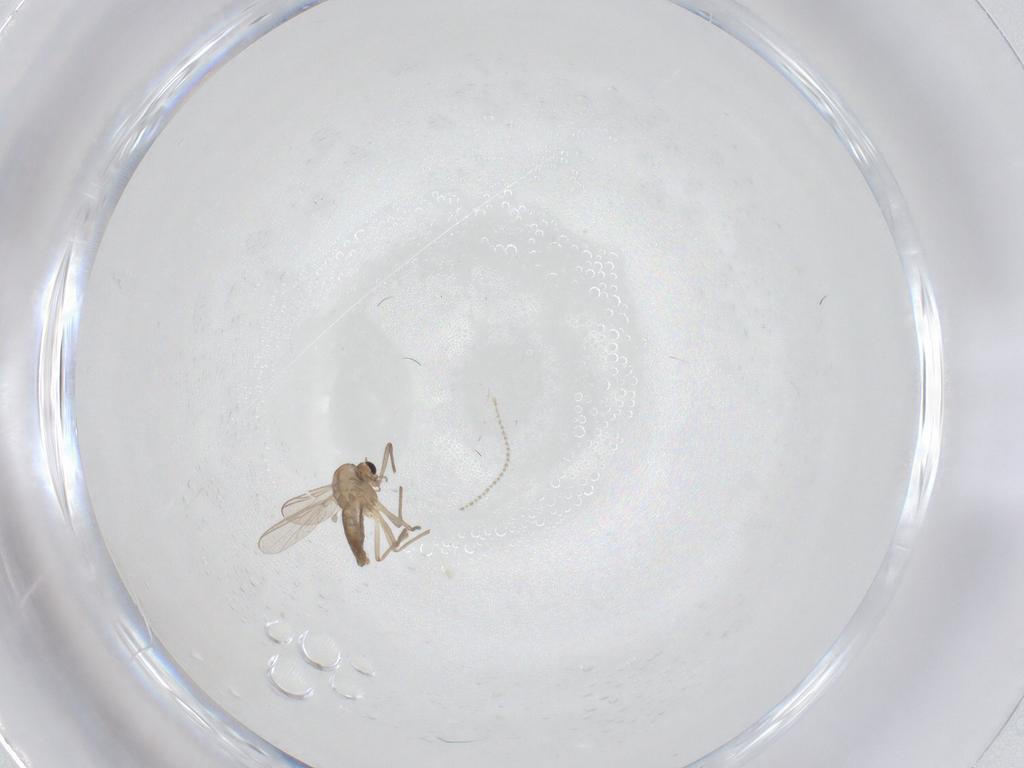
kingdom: Animalia
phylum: Arthropoda
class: Insecta
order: Diptera
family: Chironomidae
